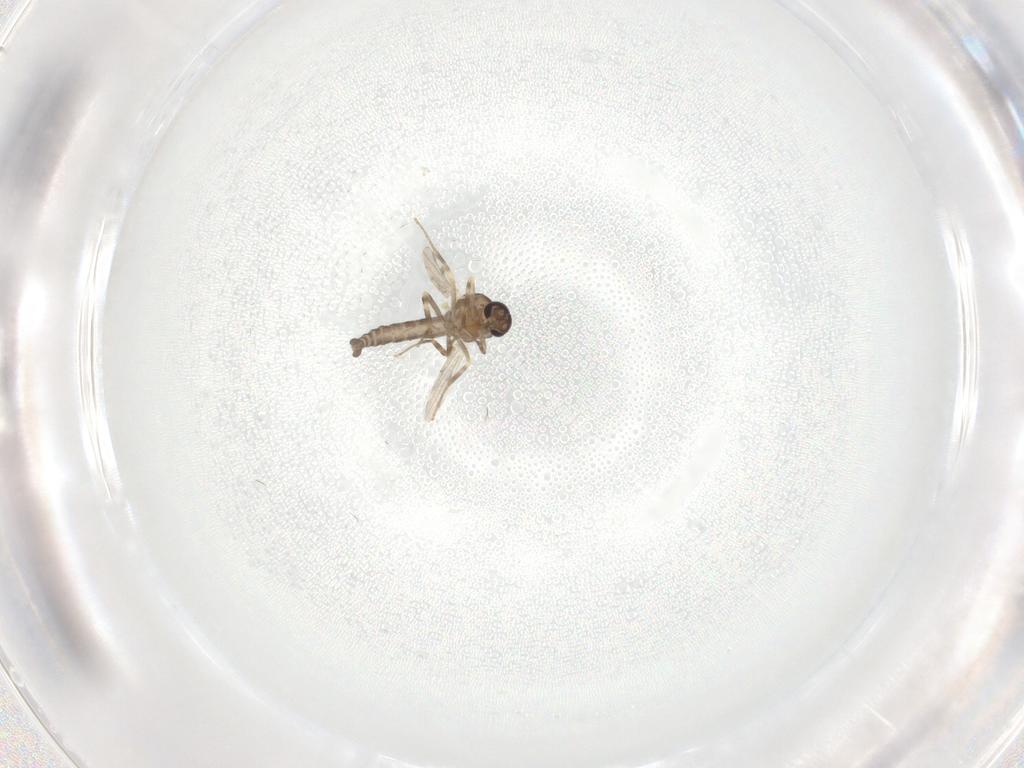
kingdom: Animalia
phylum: Arthropoda
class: Insecta
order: Diptera
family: Ceratopogonidae
